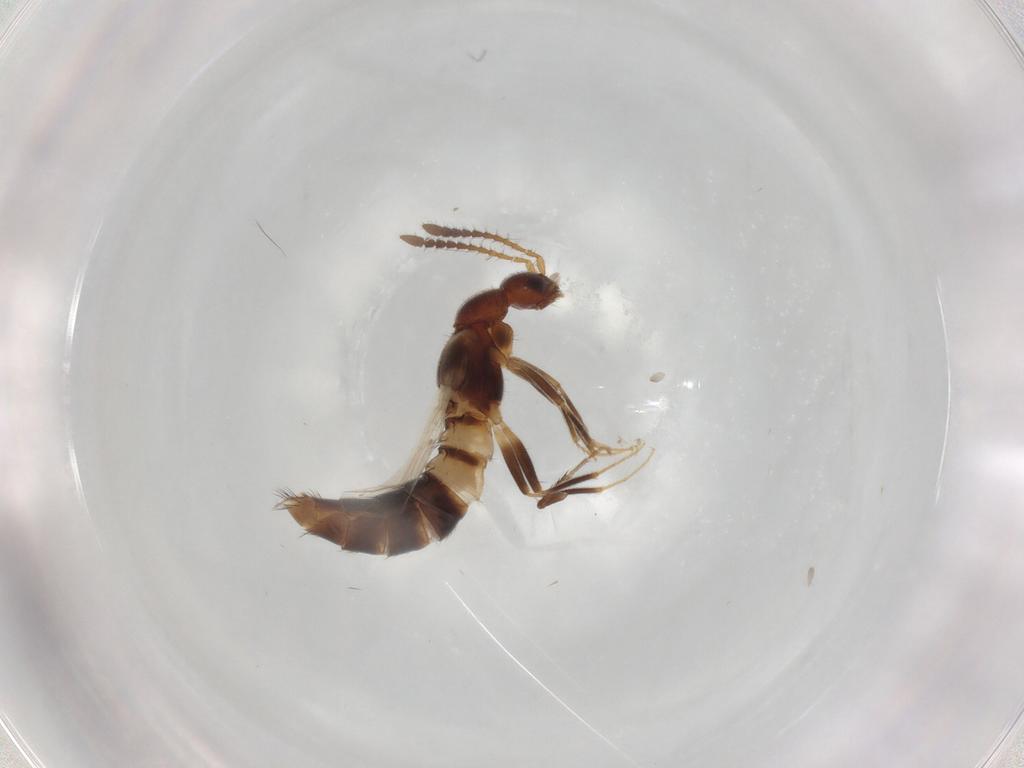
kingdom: Animalia
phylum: Arthropoda
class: Insecta
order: Coleoptera
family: Staphylinidae
